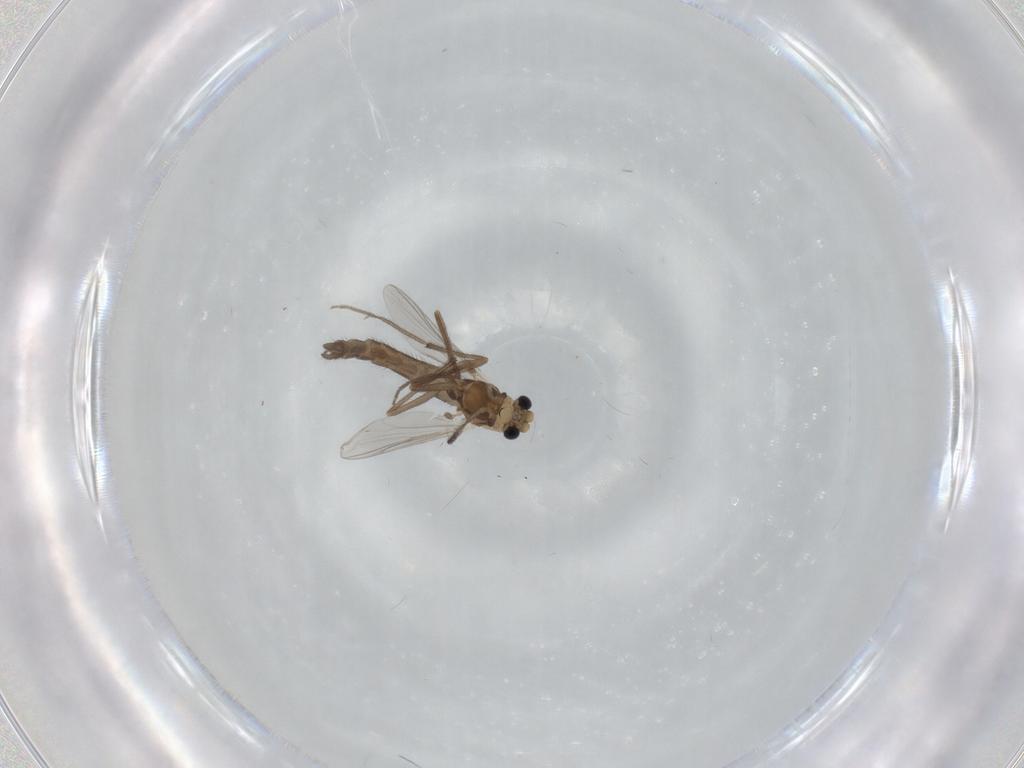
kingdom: Animalia
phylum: Arthropoda
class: Insecta
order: Diptera
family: Chironomidae
